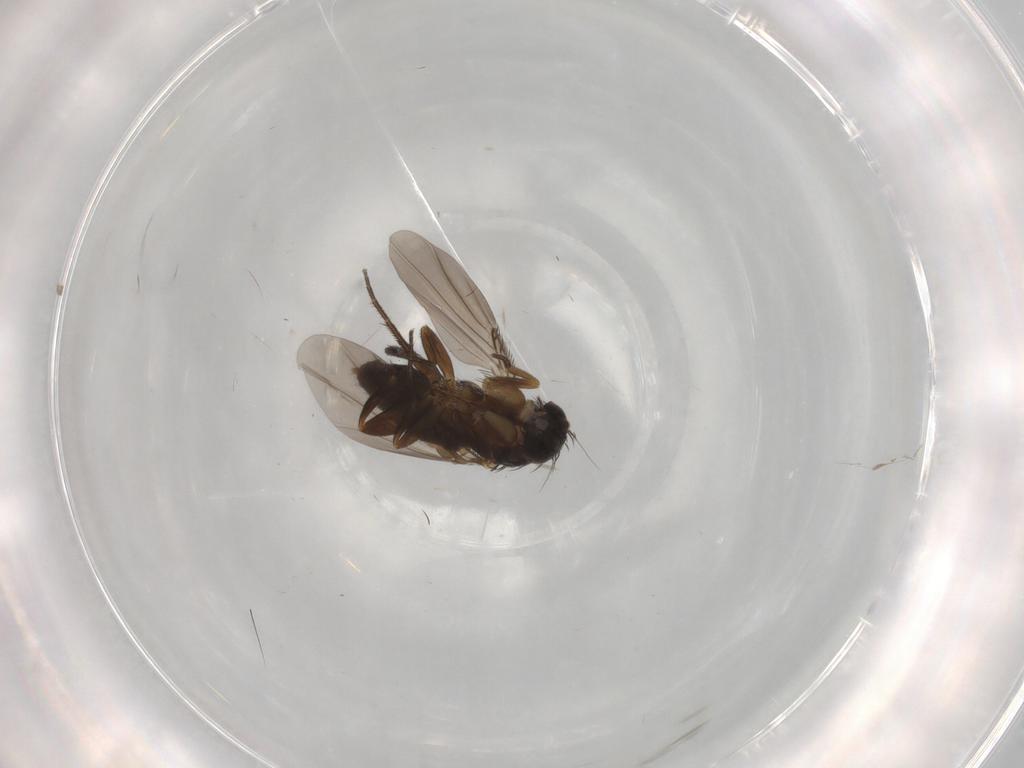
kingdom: Animalia
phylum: Arthropoda
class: Insecta
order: Diptera
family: Phoridae
